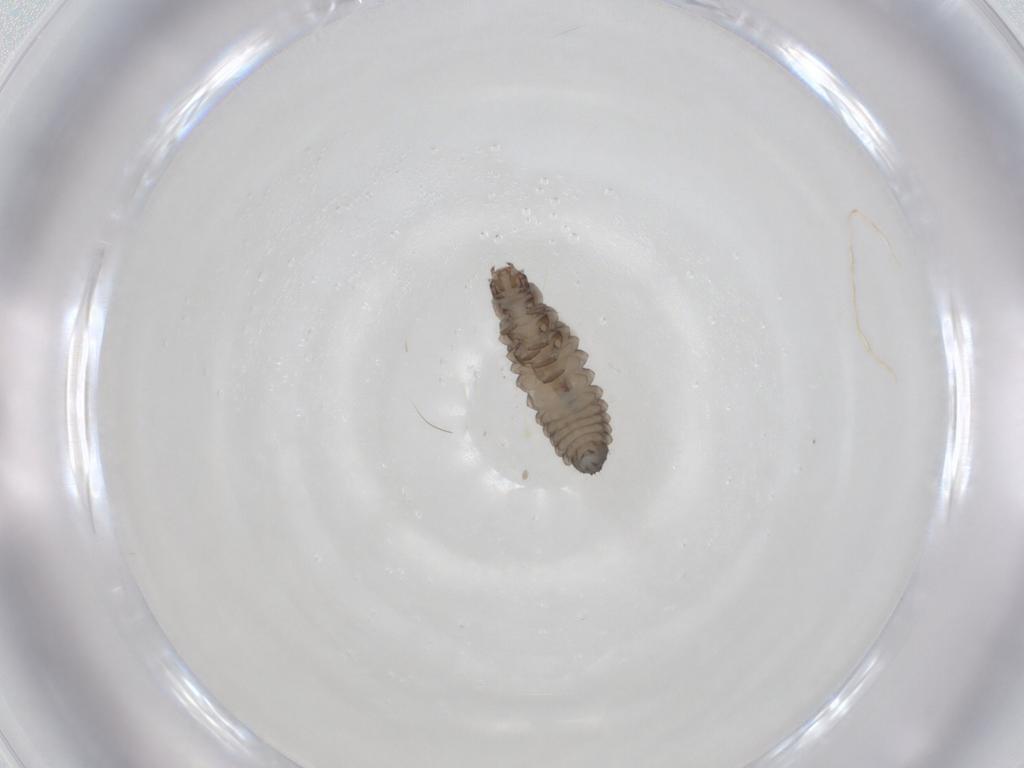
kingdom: Animalia
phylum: Arthropoda
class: Insecta
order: Coleoptera
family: Coccinellidae
